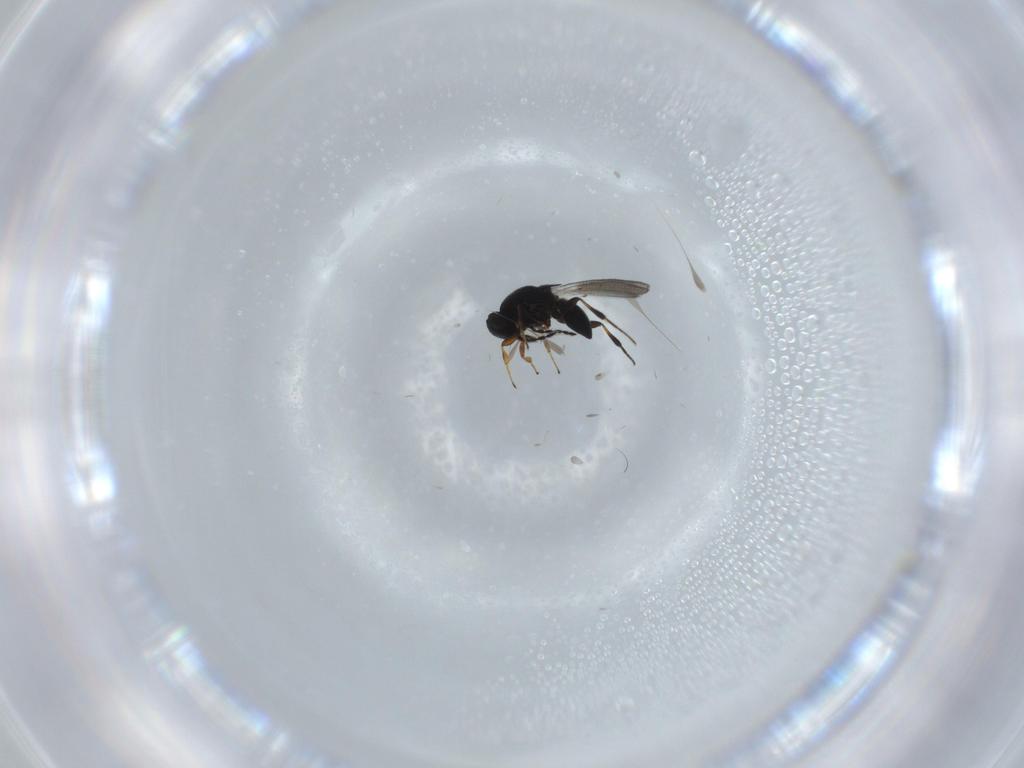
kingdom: Animalia
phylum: Arthropoda
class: Insecta
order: Hymenoptera
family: Platygastridae
